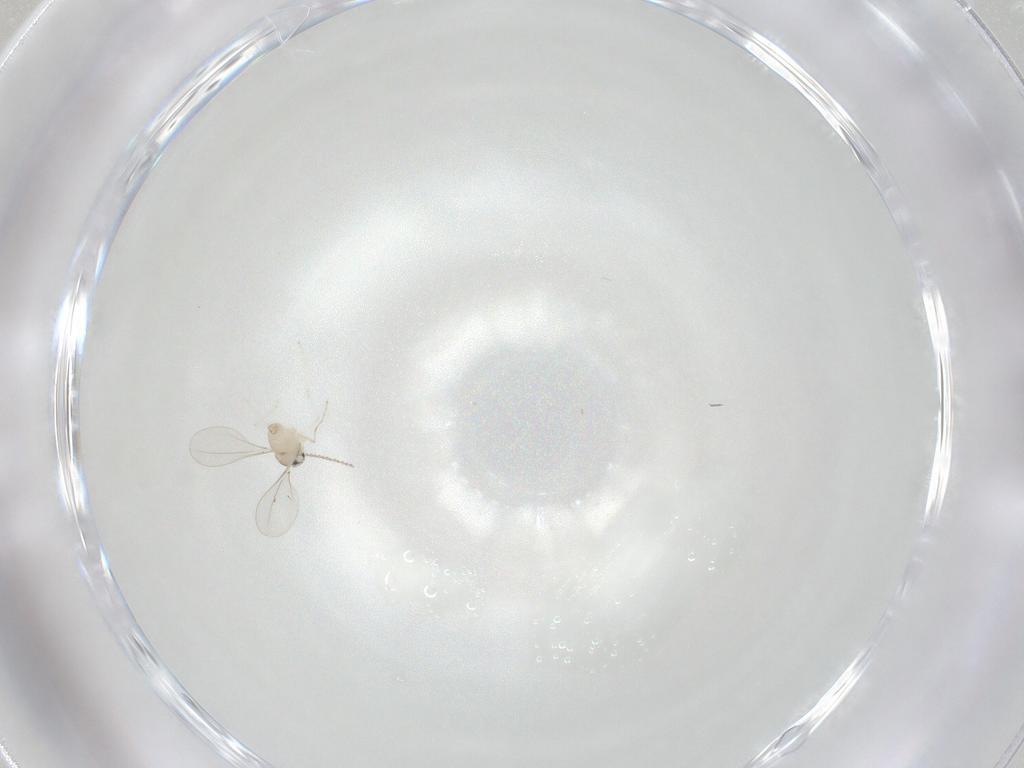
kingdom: Animalia
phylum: Arthropoda
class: Insecta
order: Diptera
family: Cecidomyiidae
